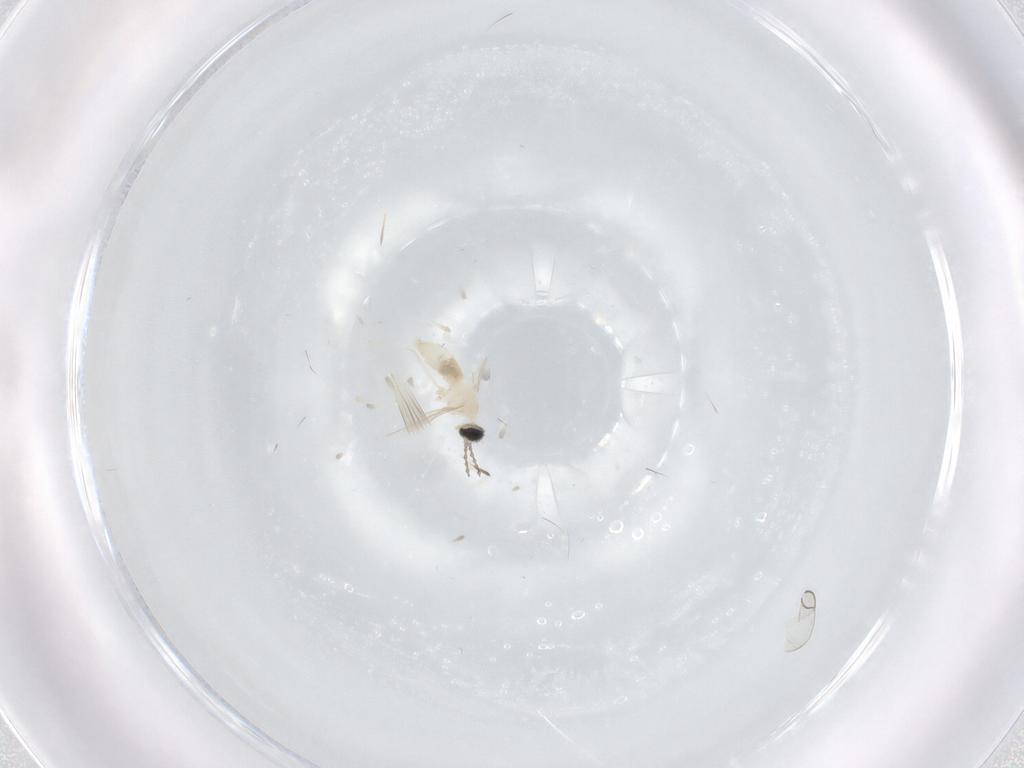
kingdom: Animalia
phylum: Arthropoda
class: Insecta
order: Diptera
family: Cecidomyiidae
